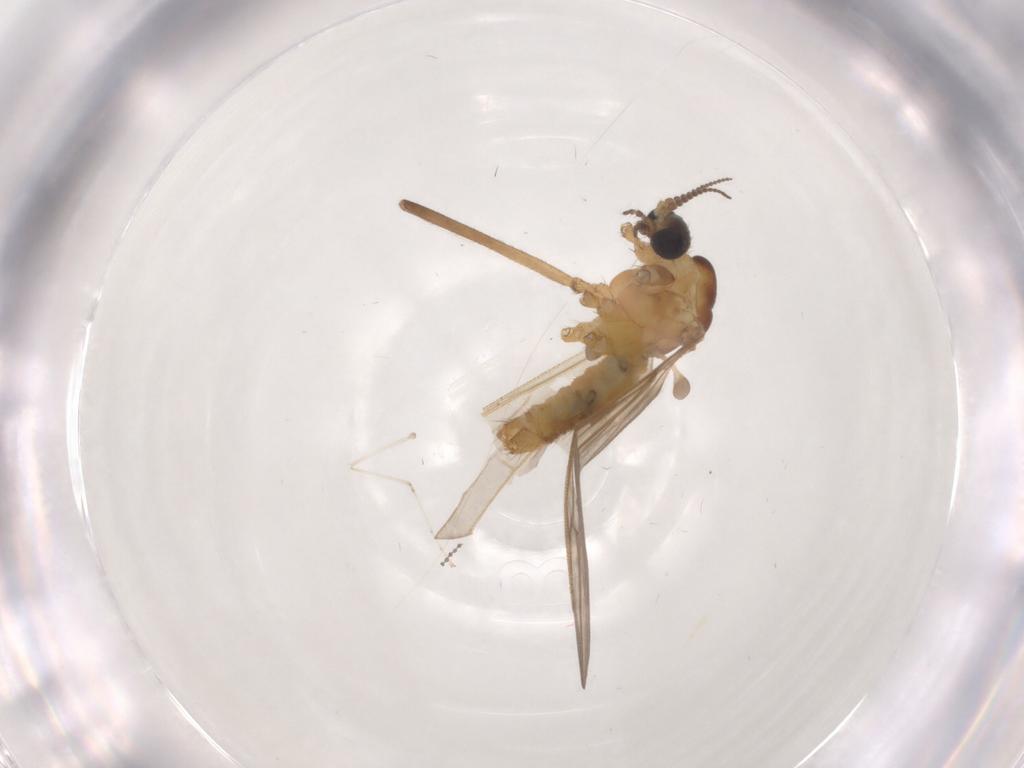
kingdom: Animalia
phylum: Arthropoda
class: Insecta
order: Diptera
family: Limoniidae
